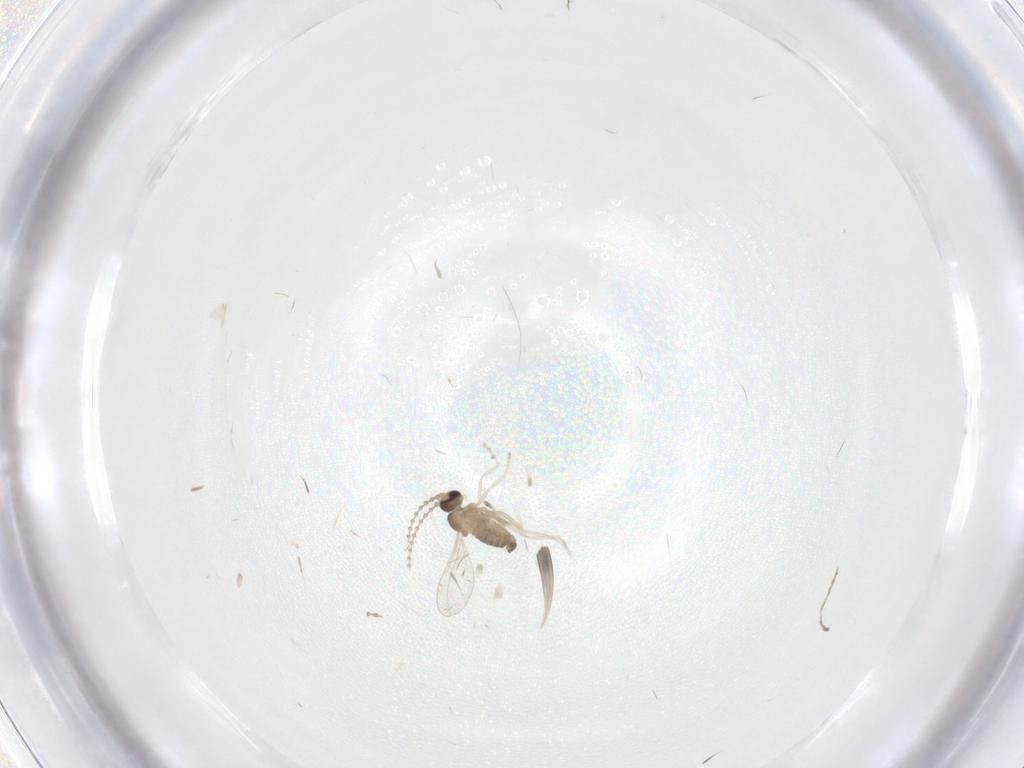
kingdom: Animalia
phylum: Arthropoda
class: Insecta
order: Diptera
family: Cecidomyiidae
